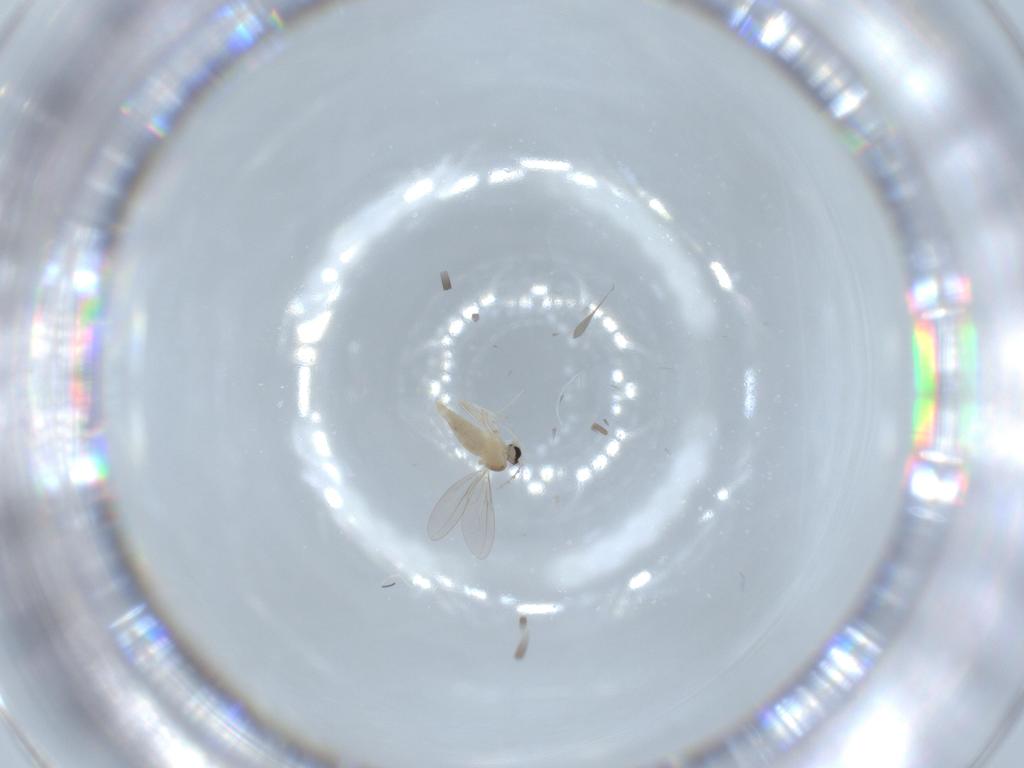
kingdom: Animalia
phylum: Arthropoda
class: Insecta
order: Diptera
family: Cecidomyiidae
